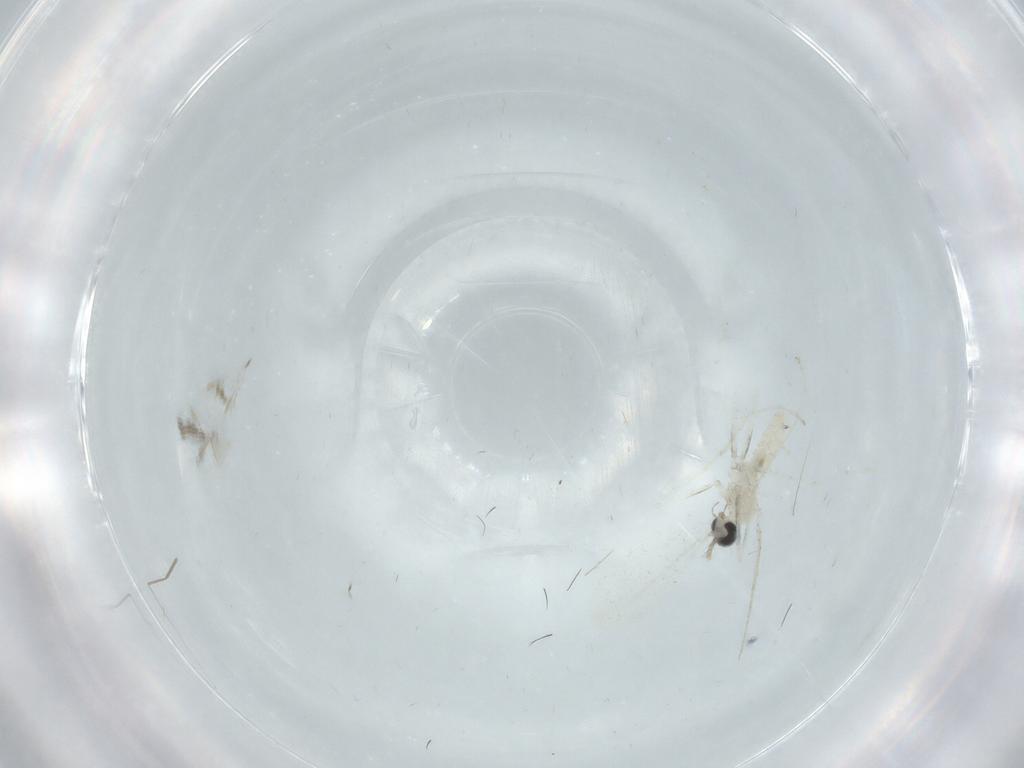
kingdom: Animalia
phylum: Arthropoda
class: Insecta
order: Diptera
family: Cecidomyiidae
